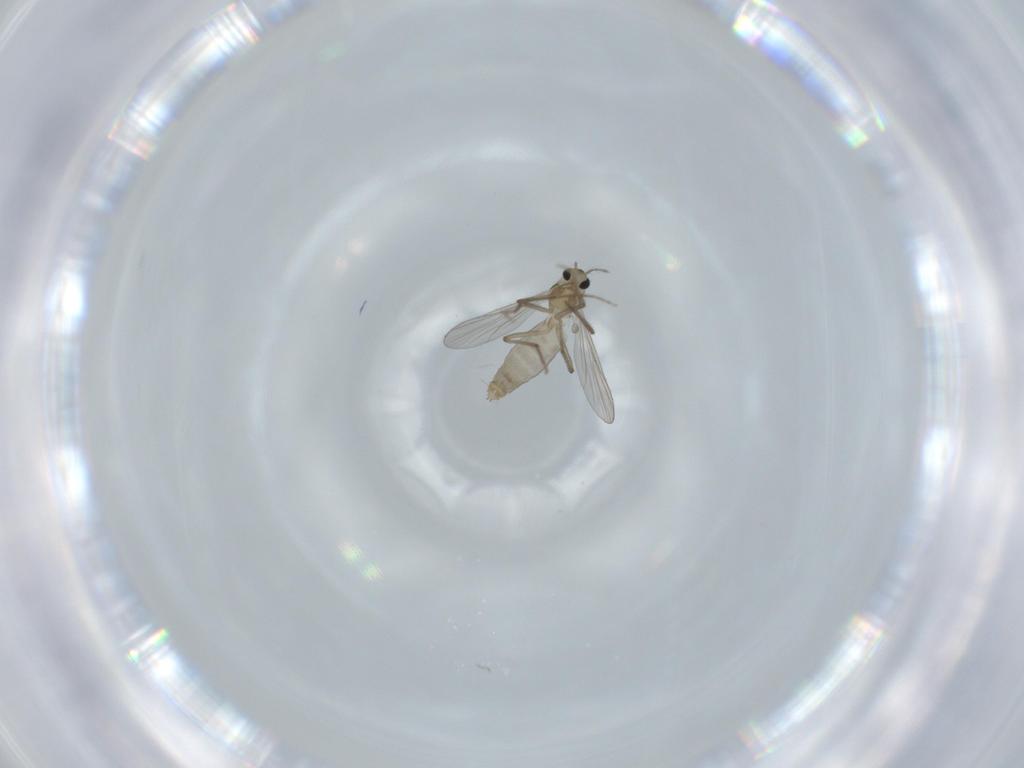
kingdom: Animalia
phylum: Arthropoda
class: Insecta
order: Diptera
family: Chironomidae
